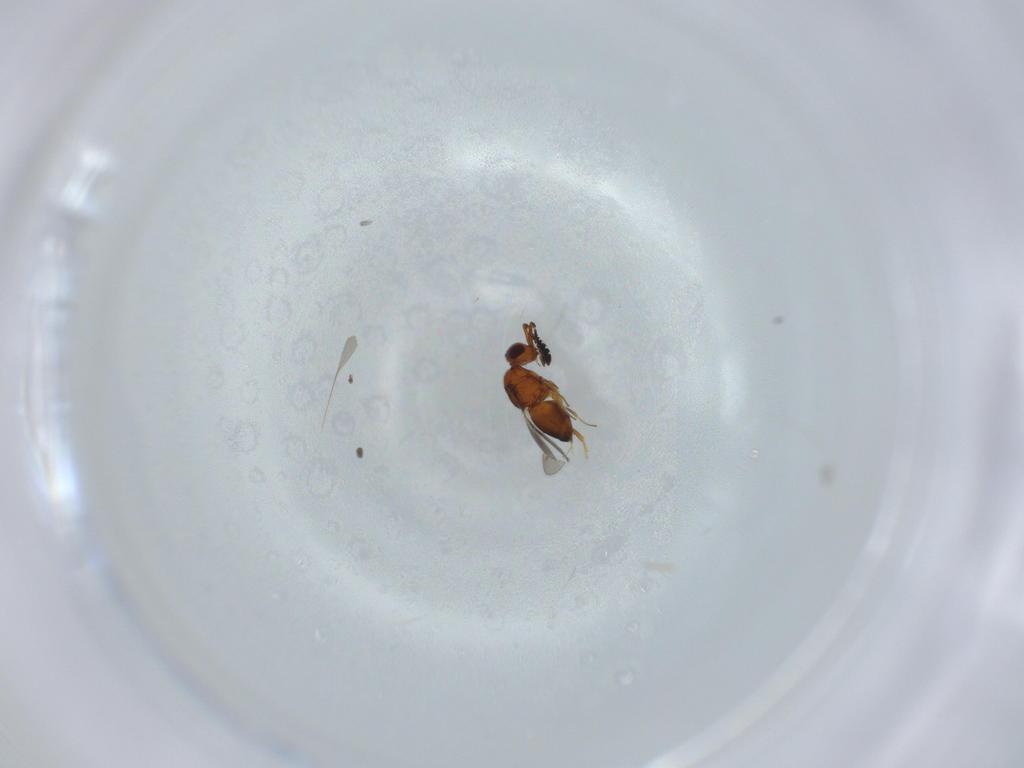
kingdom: Animalia
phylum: Arthropoda
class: Insecta
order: Hymenoptera
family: Ceraphronidae
